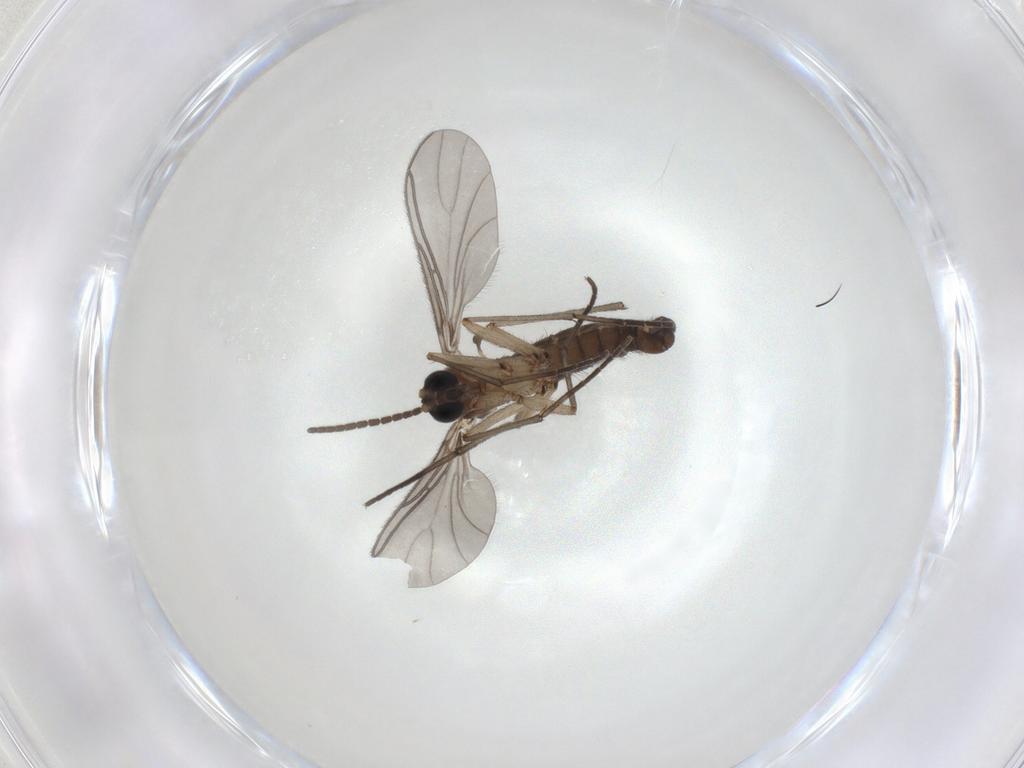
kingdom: Animalia
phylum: Arthropoda
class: Insecta
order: Diptera
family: Sciaridae
